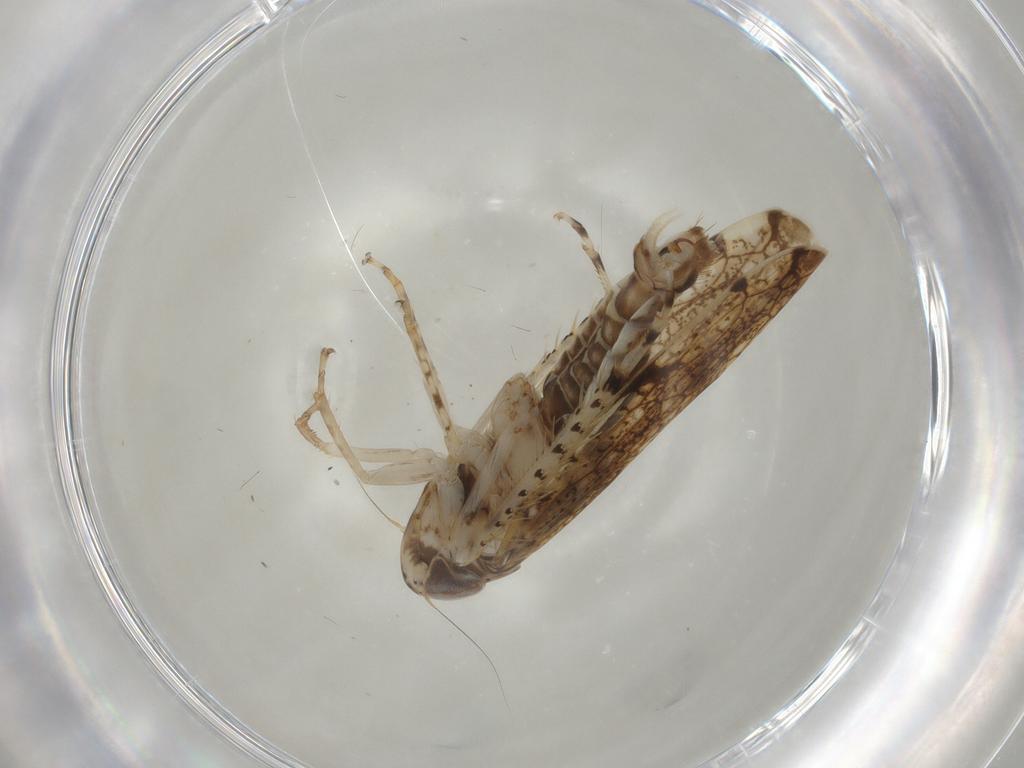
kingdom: Animalia
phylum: Arthropoda
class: Insecta
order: Hemiptera
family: Cicadellidae
